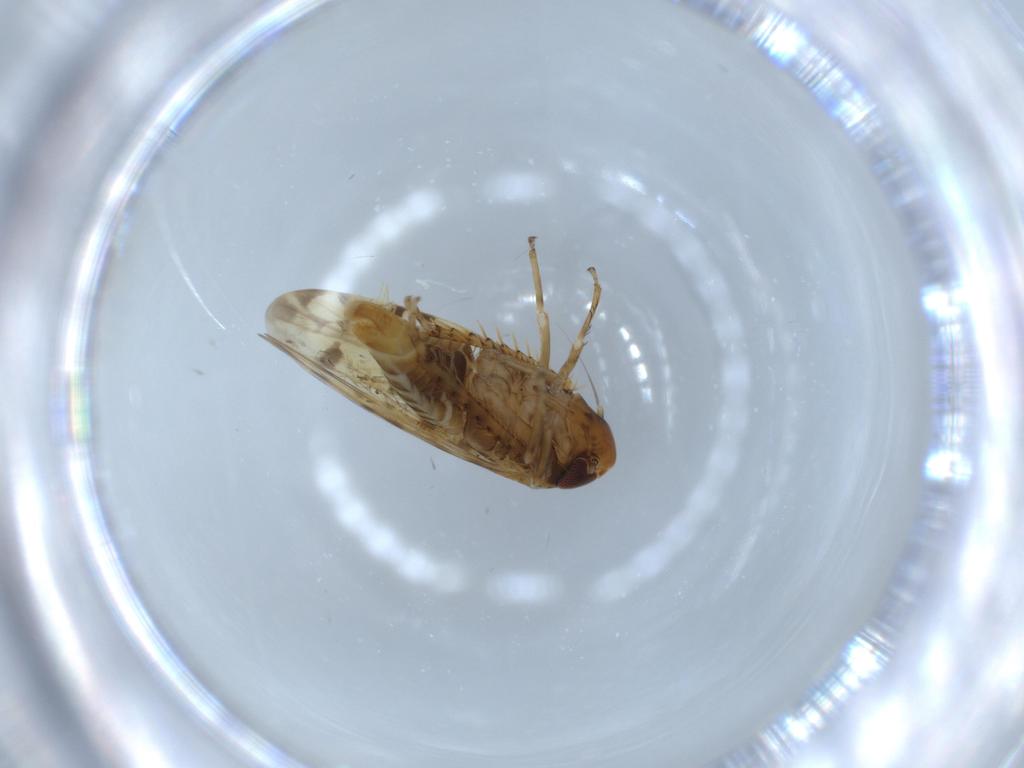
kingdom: Animalia
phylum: Arthropoda
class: Insecta
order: Hemiptera
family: Cicadellidae
